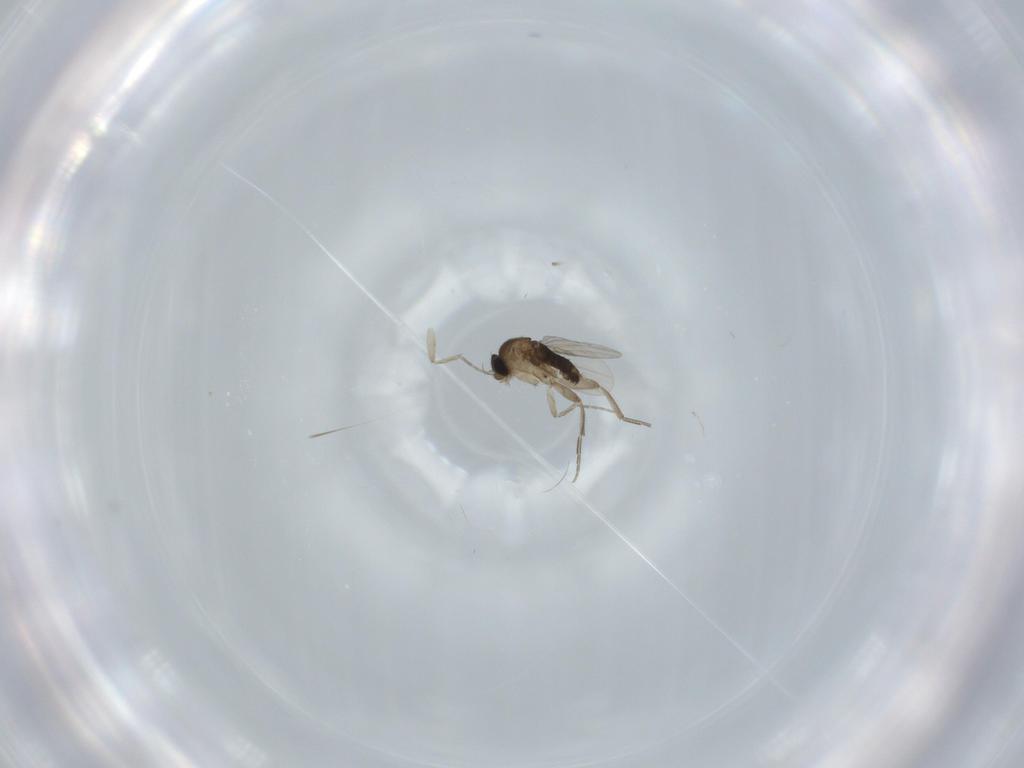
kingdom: Animalia
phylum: Arthropoda
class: Insecta
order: Diptera
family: Phoridae
